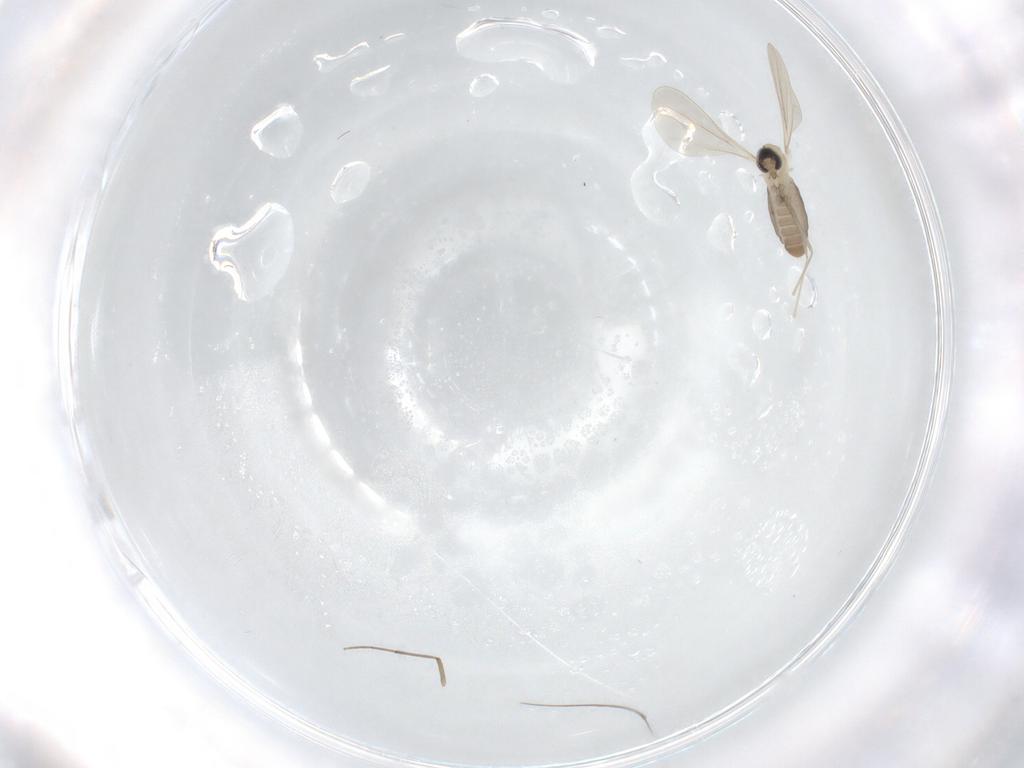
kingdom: Animalia
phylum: Arthropoda
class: Insecta
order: Diptera
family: Cecidomyiidae
